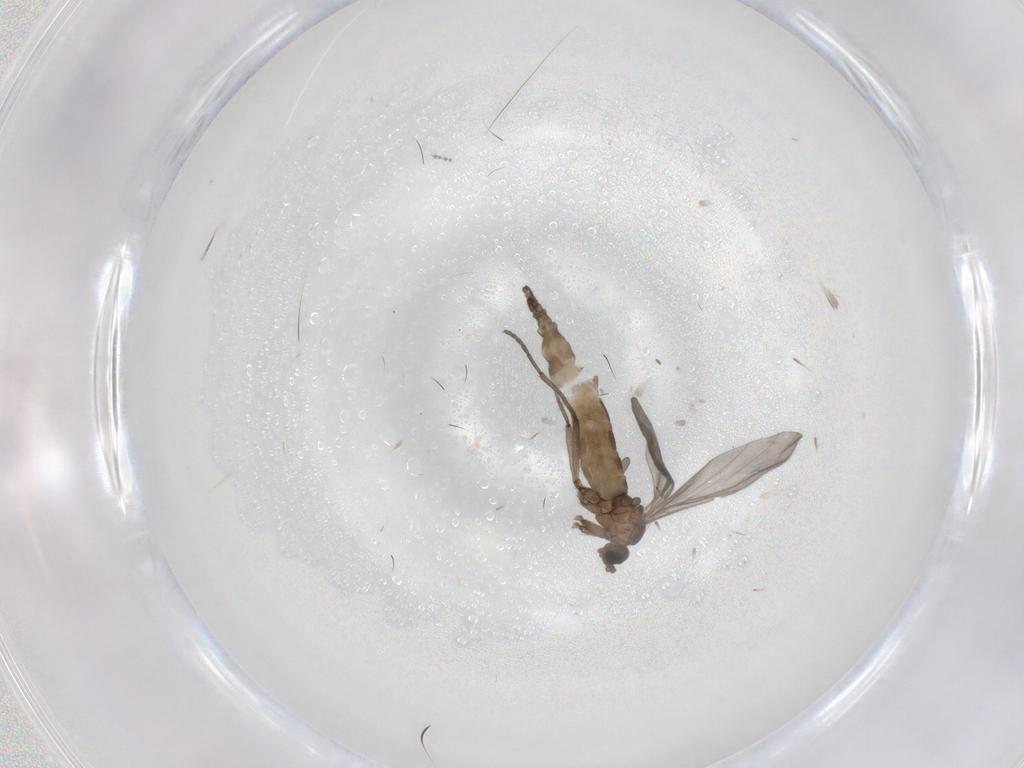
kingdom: Animalia
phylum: Arthropoda
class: Insecta
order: Diptera
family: Sciaridae
